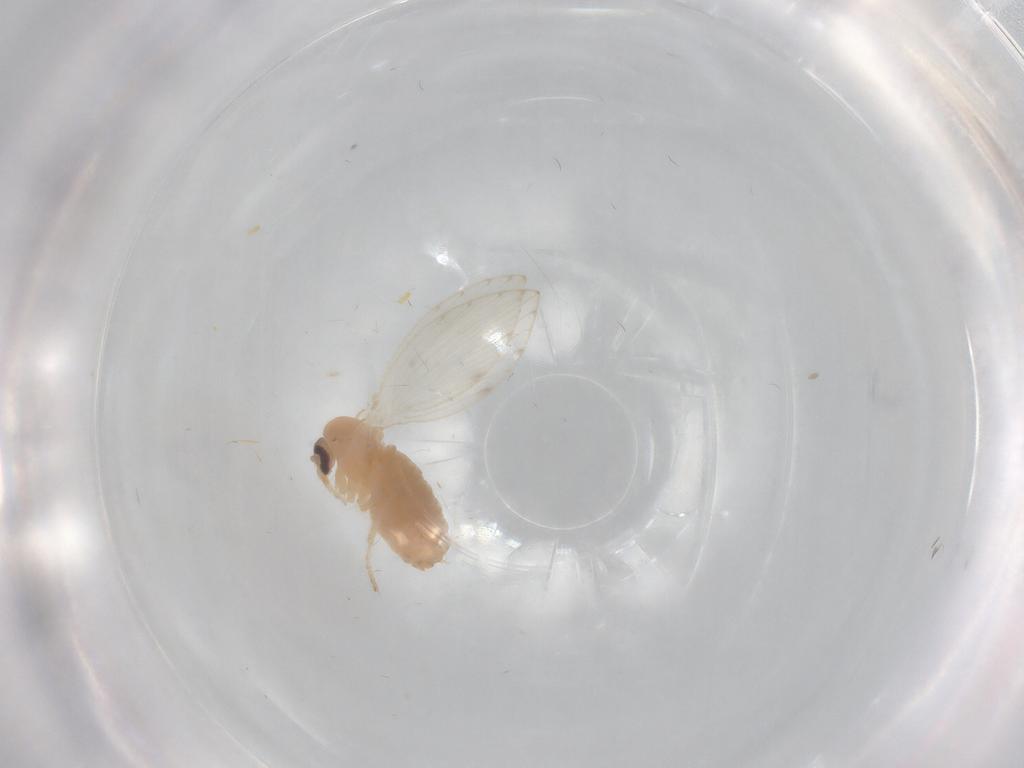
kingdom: Animalia
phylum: Arthropoda
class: Insecta
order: Diptera
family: Psychodidae
